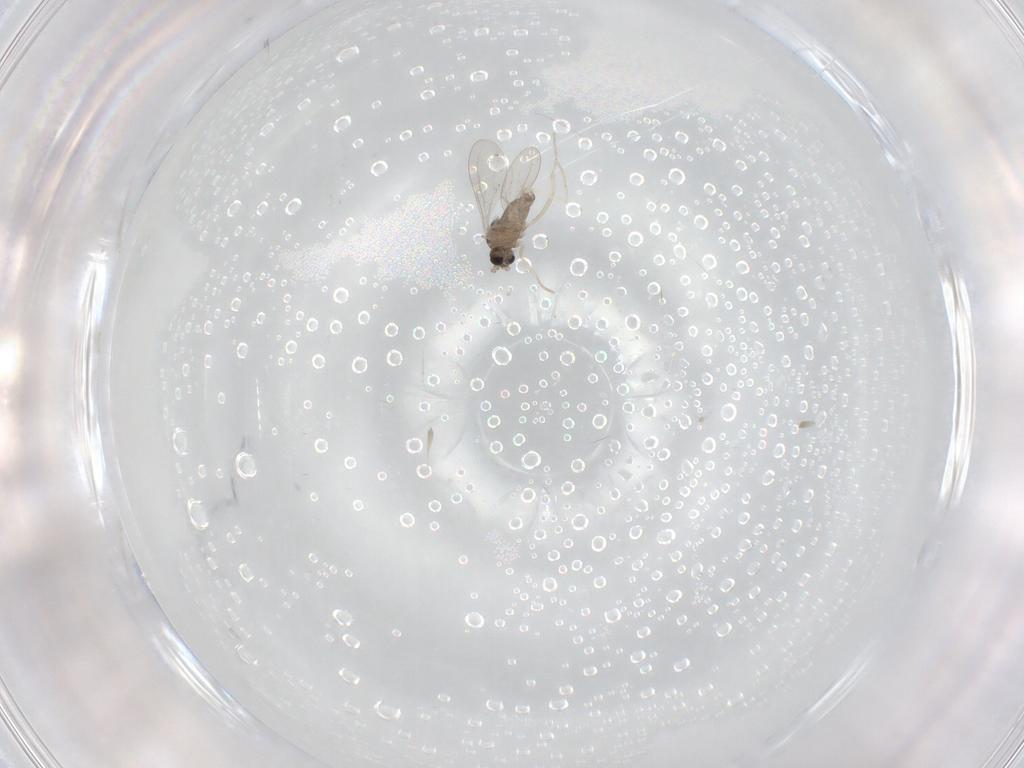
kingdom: Animalia
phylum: Arthropoda
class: Insecta
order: Diptera
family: Cecidomyiidae
